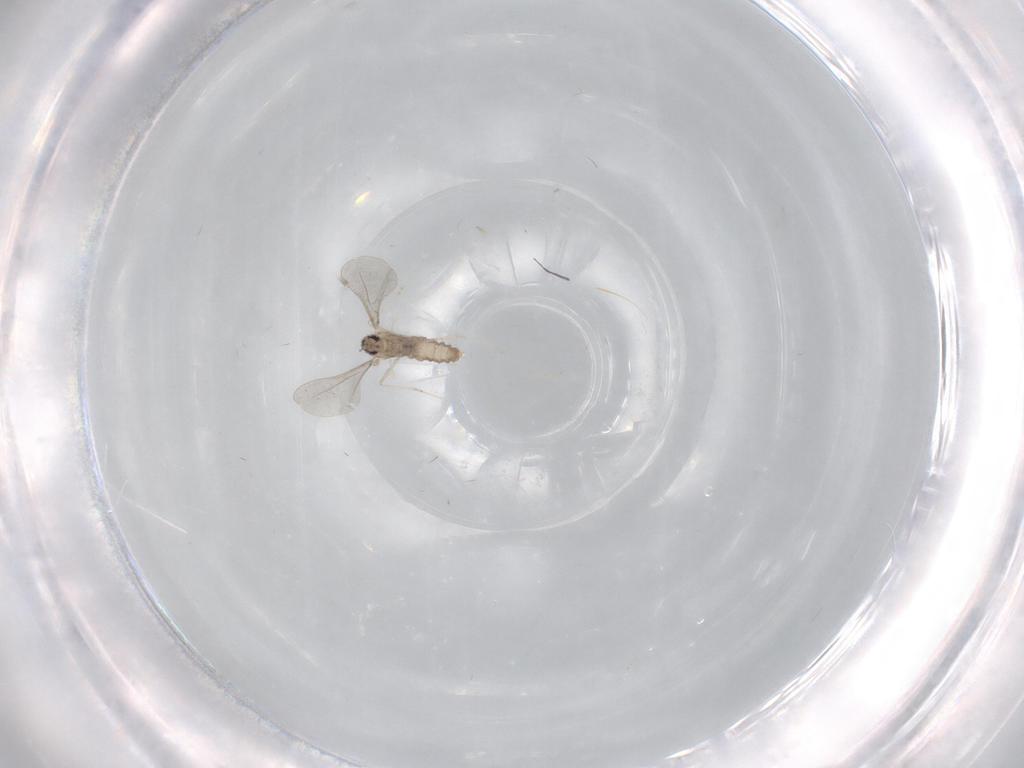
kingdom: Animalia
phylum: Arthropoda
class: Insecta
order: Diptera
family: Cecidomyiidae
